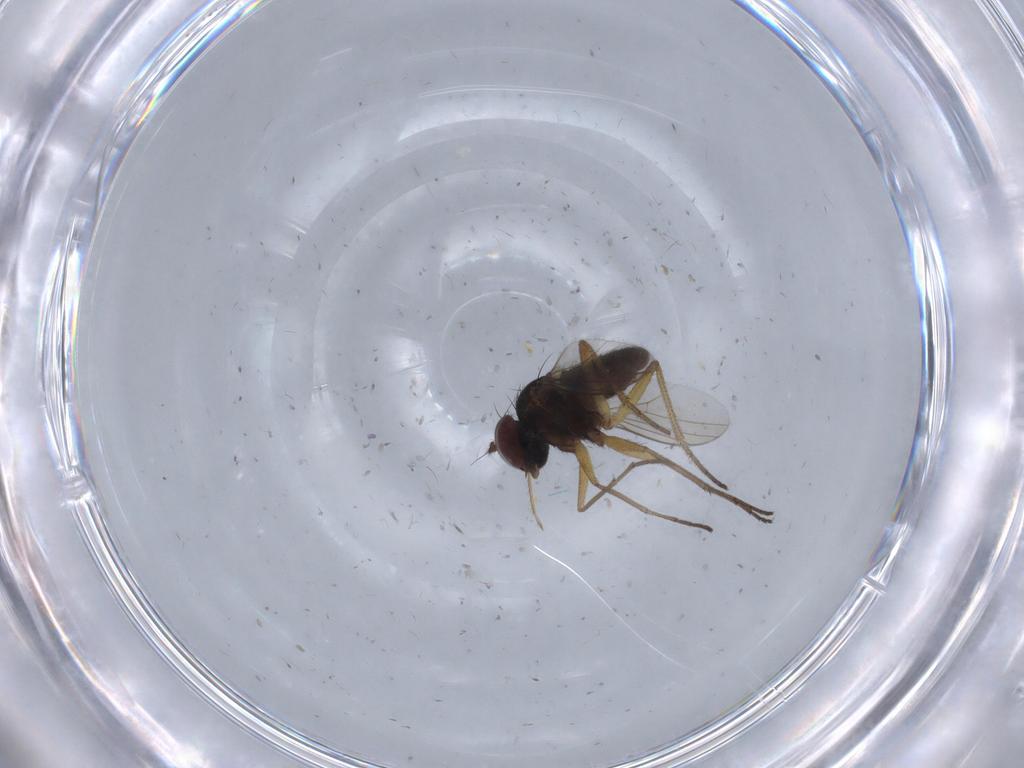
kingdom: Animalia
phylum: Arthropoda
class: Insecta
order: Diptera
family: Dolichopodidae
